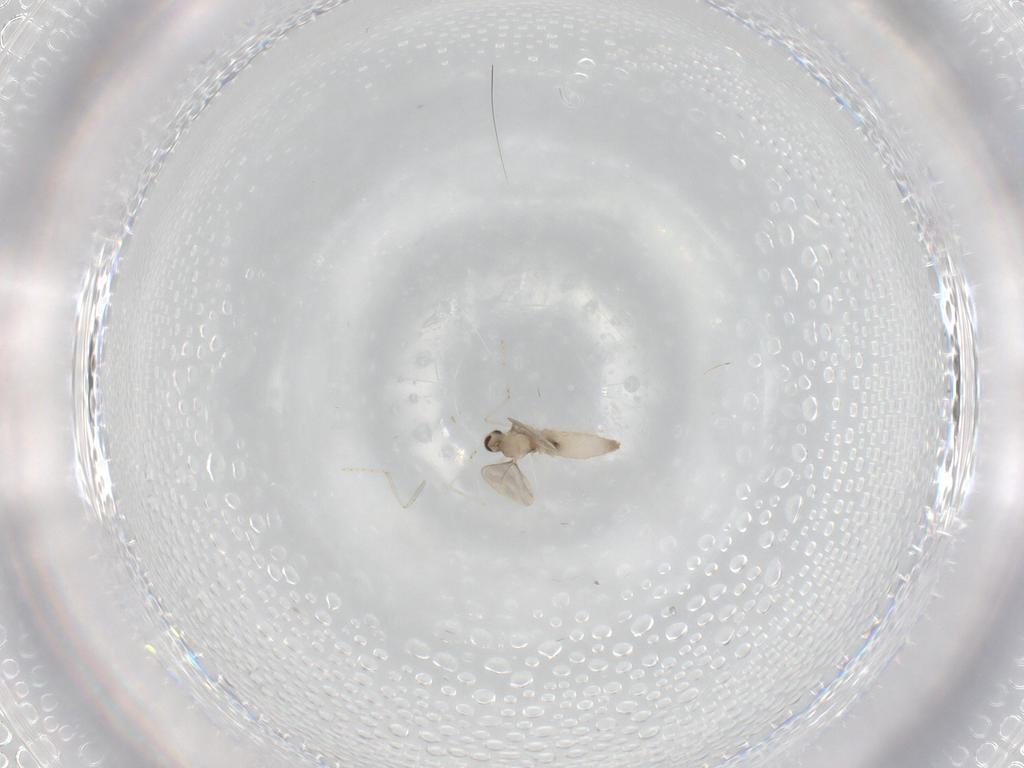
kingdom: Animalia
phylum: Arthropoda
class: Insecta
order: Diptera
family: Cecidomyiidae
